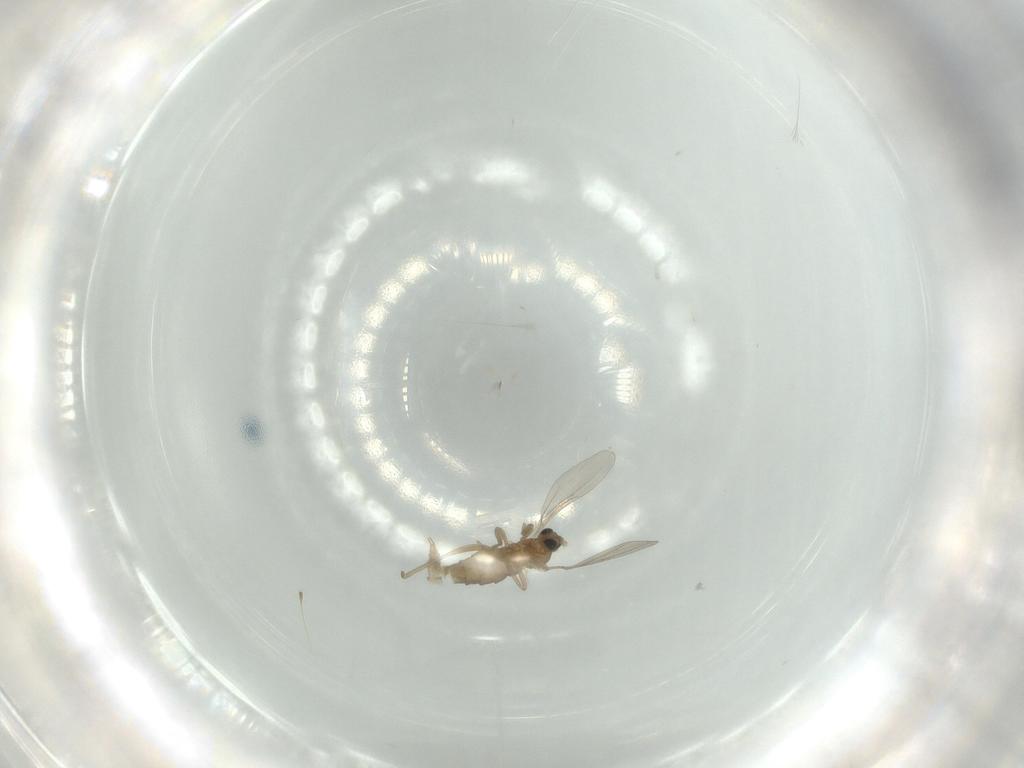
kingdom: Animalia
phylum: Arthropoda
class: Insecta
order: Diptera
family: Cecidomyiidae
